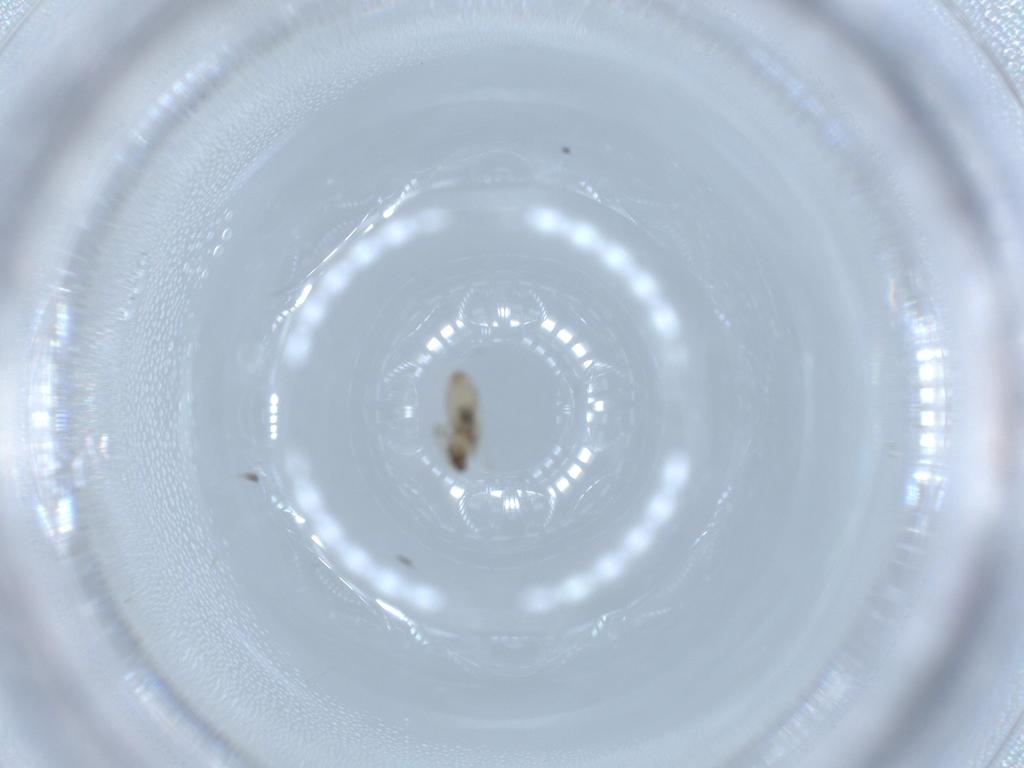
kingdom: Animalia
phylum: Arthropoda
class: Insecta
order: Diptera
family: Cecidomyiidae
